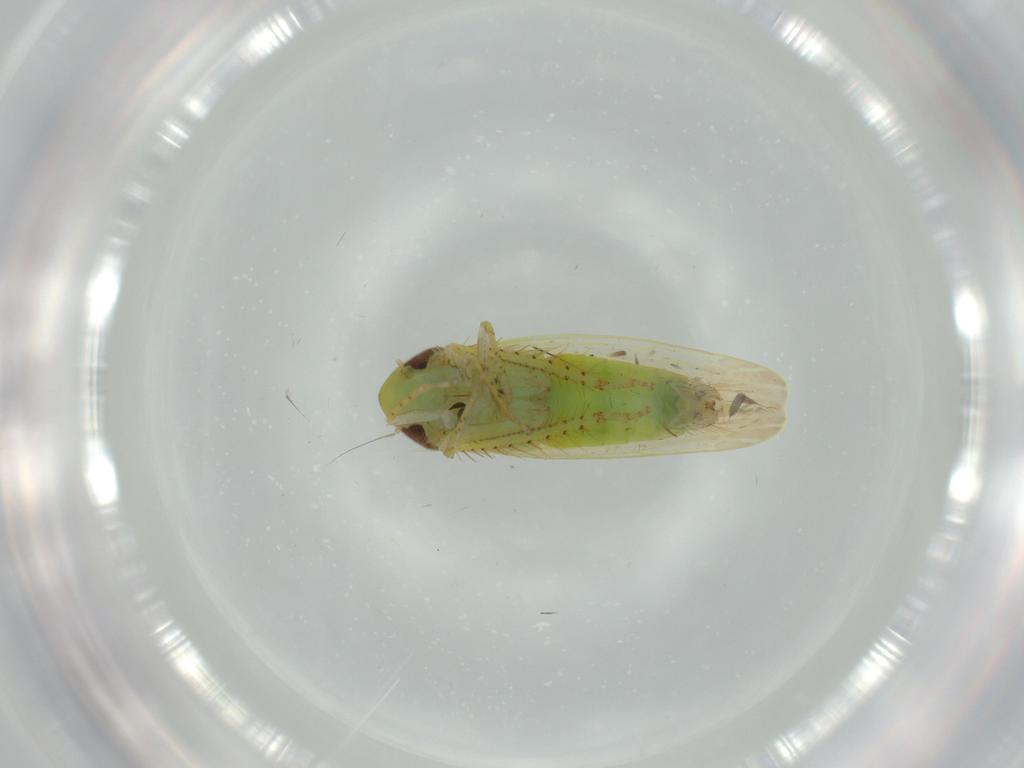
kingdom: Animalia
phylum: Arthropoda
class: Insecta
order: Hemiptera
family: Cicadellidae
